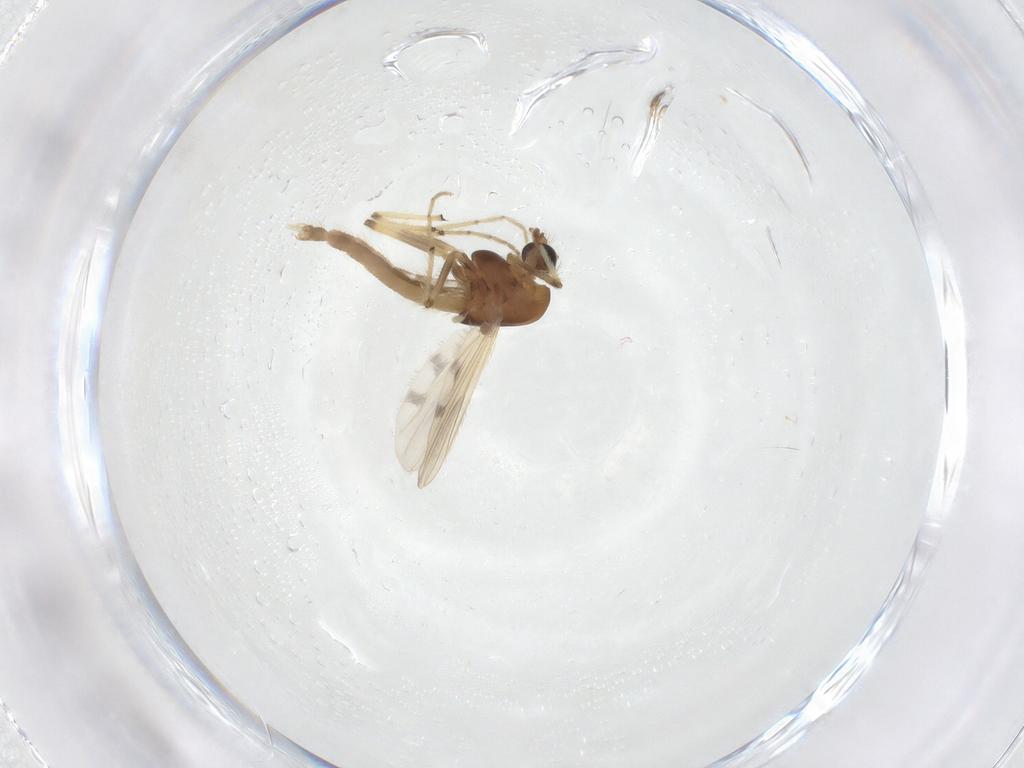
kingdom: Animalia
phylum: Arthropoda
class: Insecta
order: Diptera
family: Chironomidae
